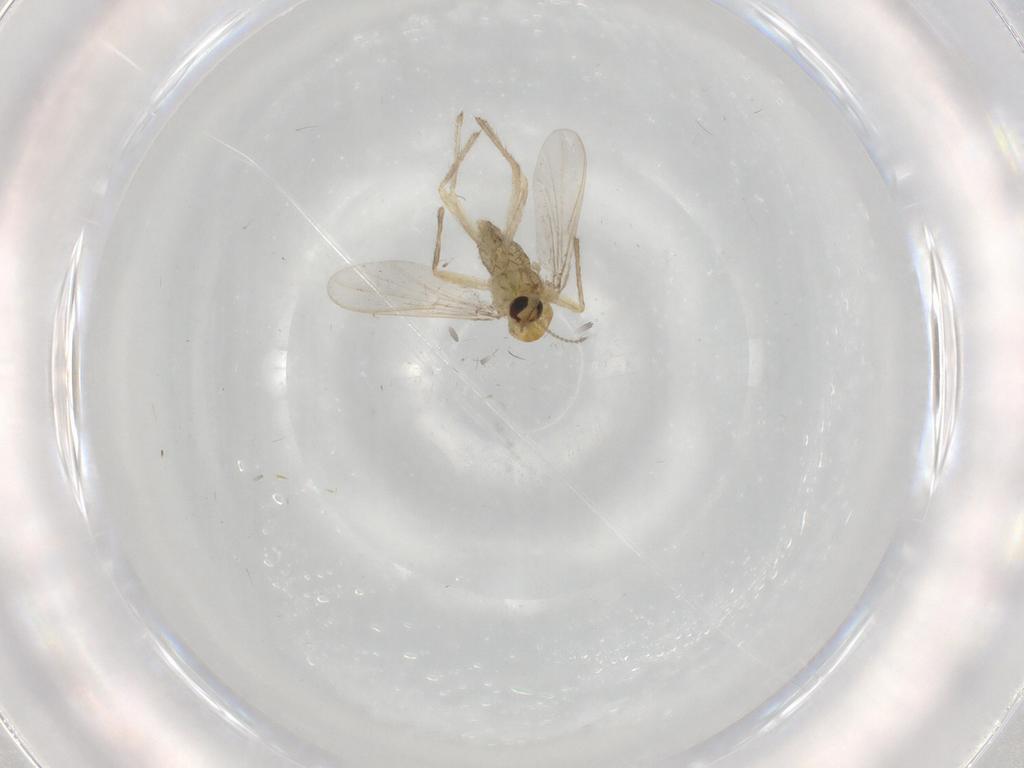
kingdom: Animalia
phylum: Arthropoda
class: Insecta
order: Diptera
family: Chironomidae
